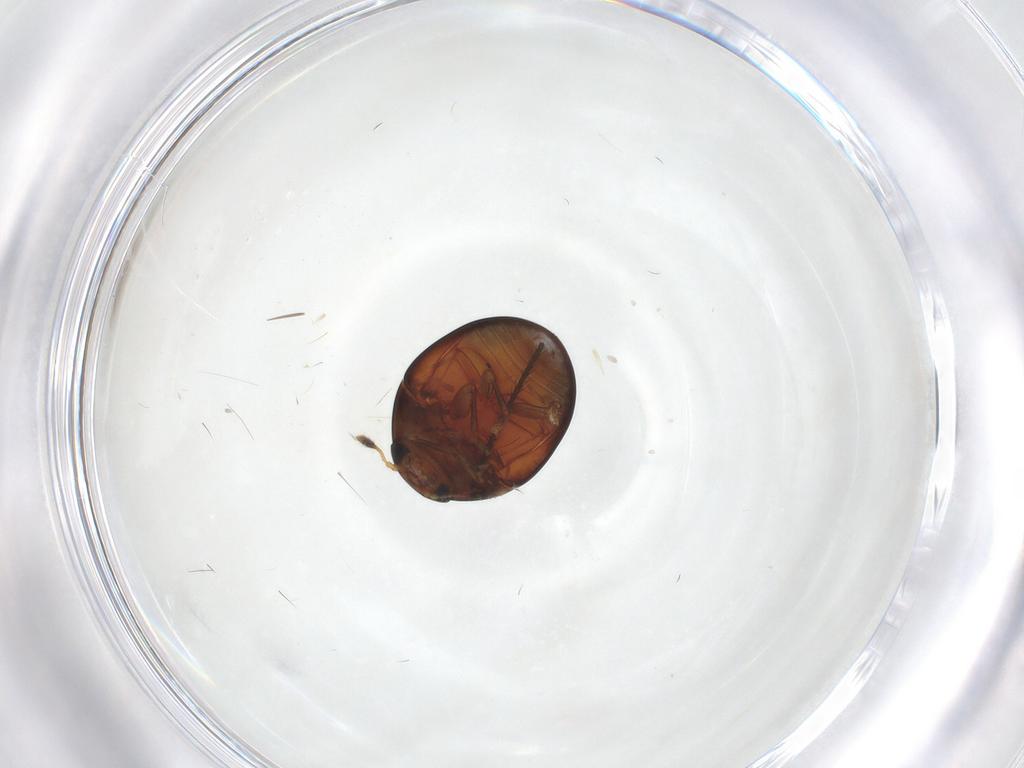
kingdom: Animalia
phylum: Arthropoda
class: Insecta
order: Coleoptera
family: Phalacridae
